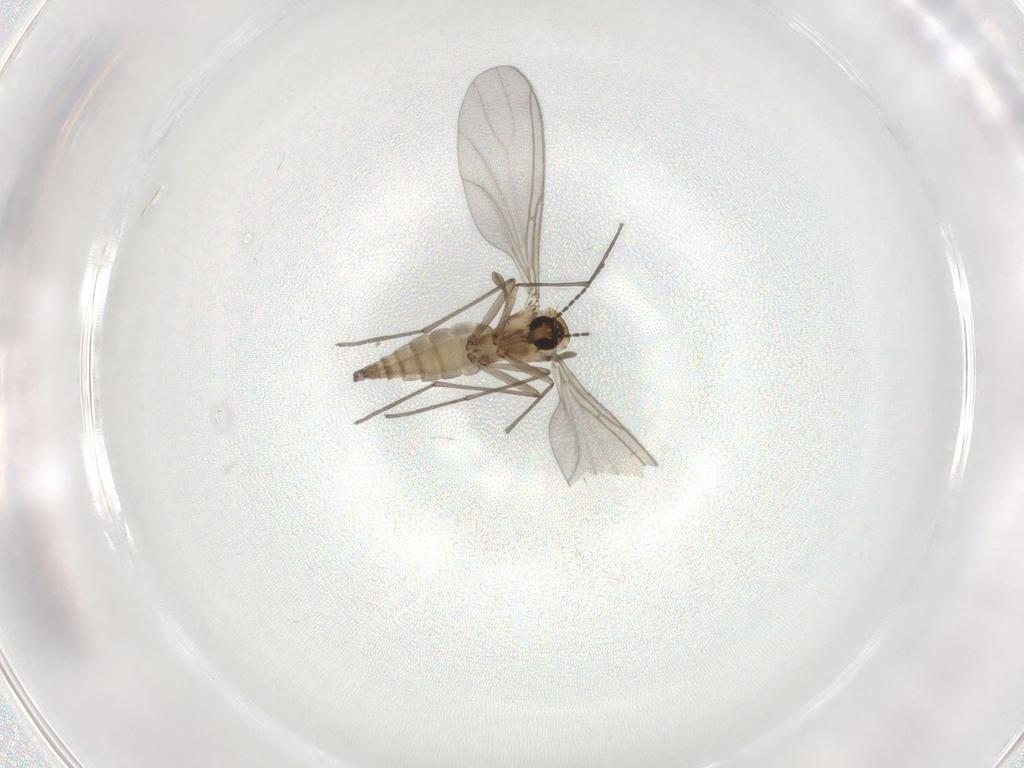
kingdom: Animalia
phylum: Arthropoda
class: Insecta
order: Diptera
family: Sciaridae
